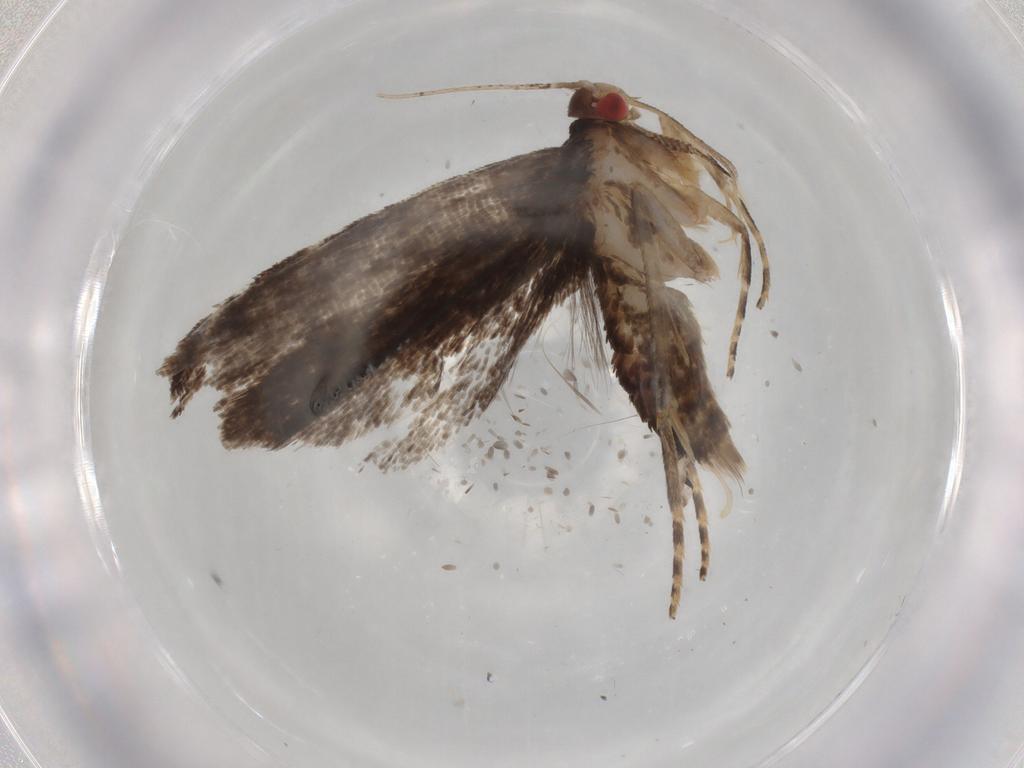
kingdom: Animalia
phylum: Arthropoda
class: Insecta
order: Lepidoptera
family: Gelechiidae
